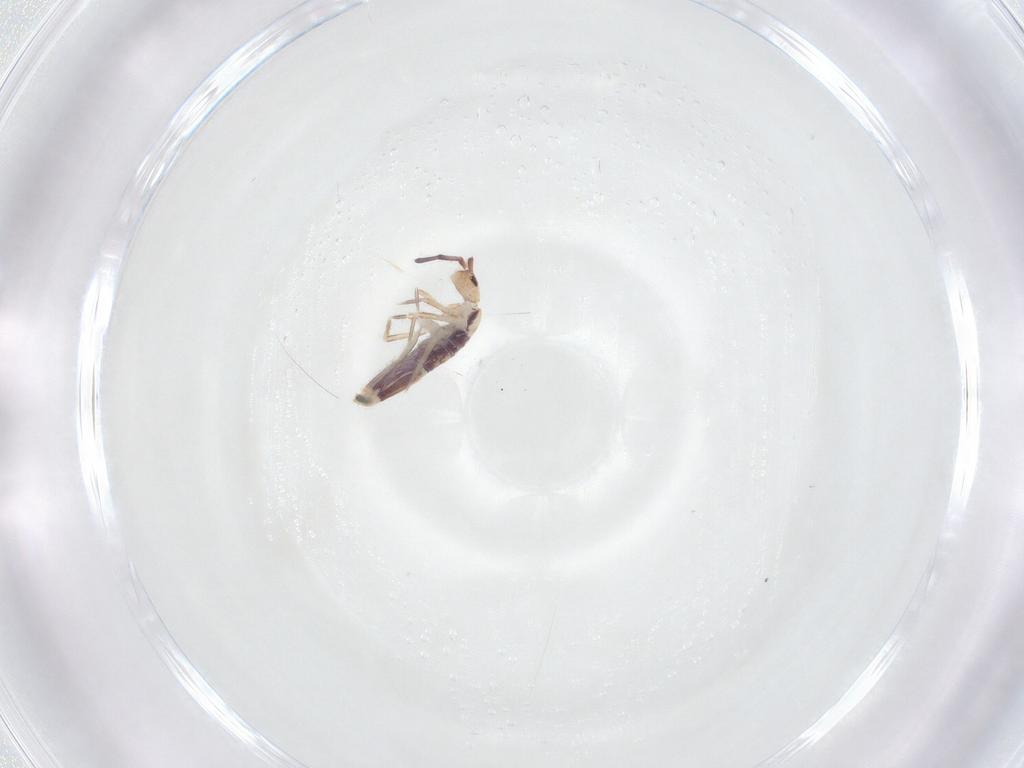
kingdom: Animalia
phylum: Arthropoda
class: Collembola
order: Entomobryomorpha
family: Entomobryidae
